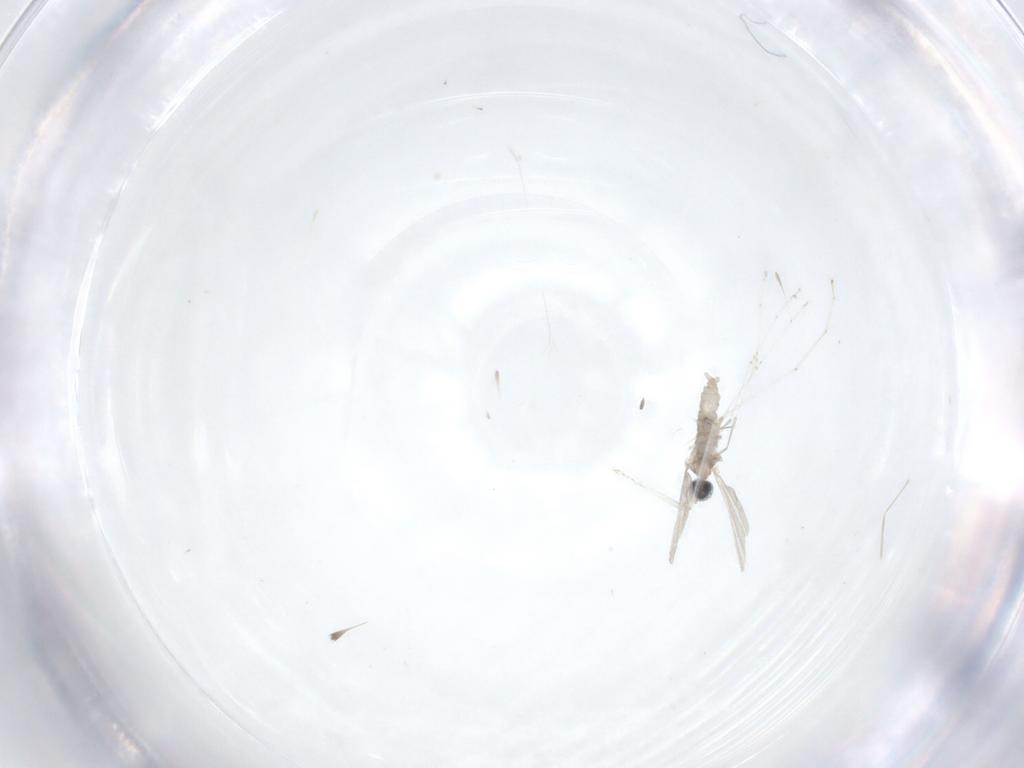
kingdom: Animalia
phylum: Arthropoda
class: Insecta
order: Diptera
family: Cecidomyiidae
